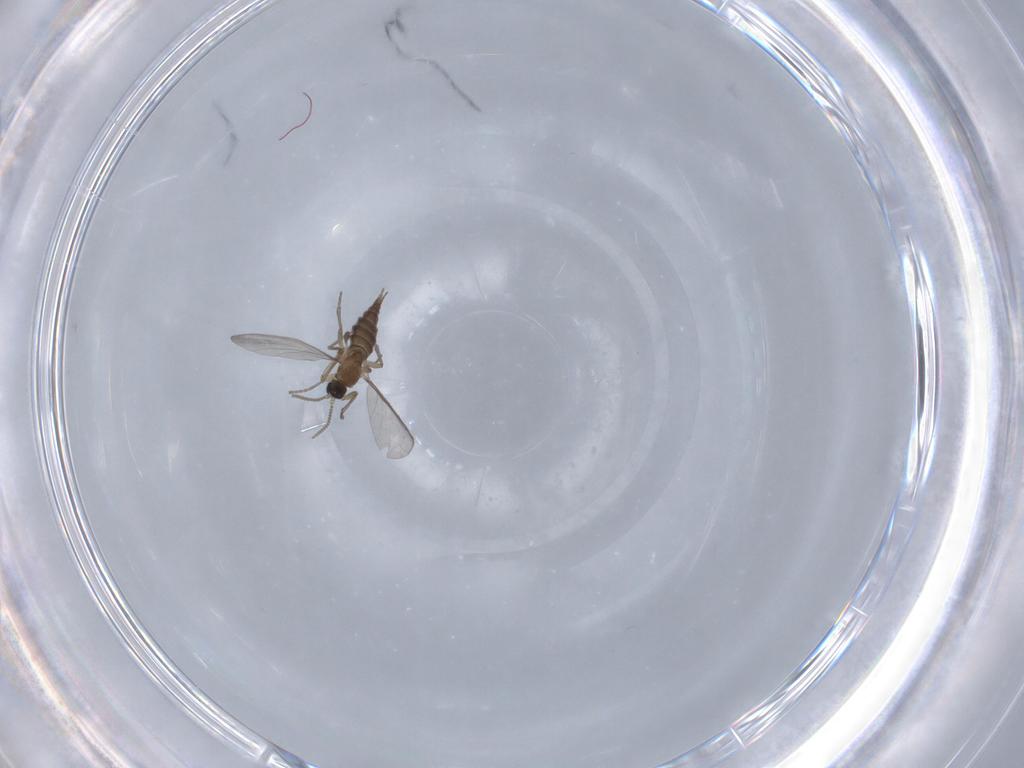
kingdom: Animalia
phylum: Arthropoda
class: Insecta
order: Diptera
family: Sciaridae
